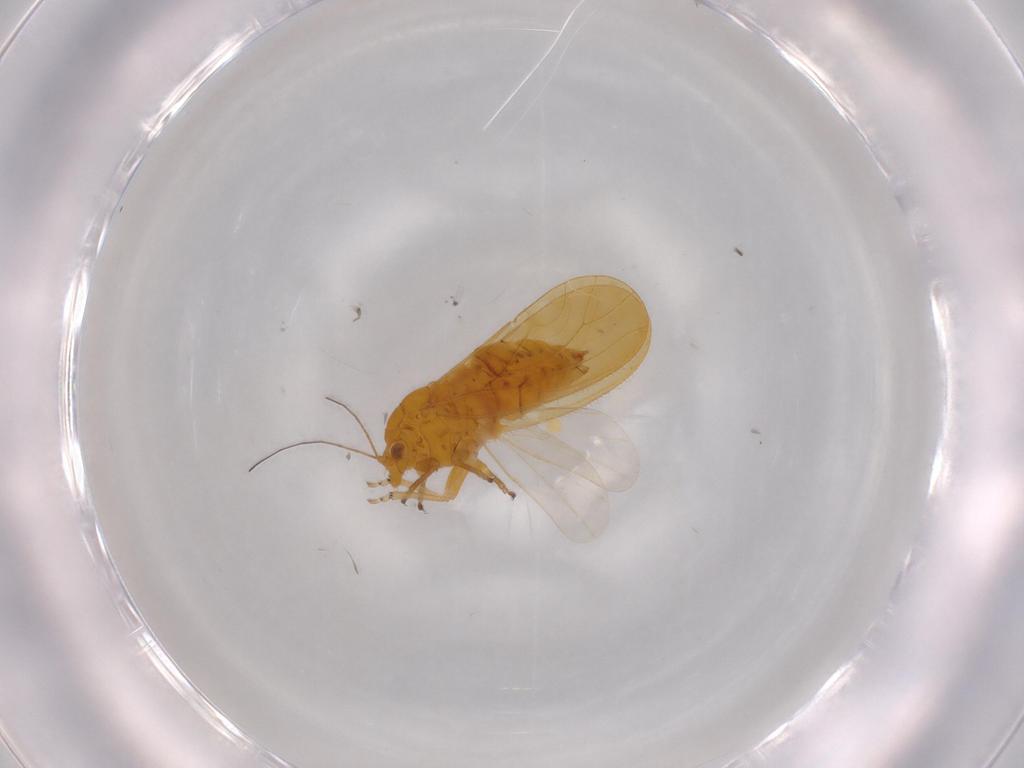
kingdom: Animalia
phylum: Arthropoda
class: Insecta
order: Hemiptera
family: Psyllidae
